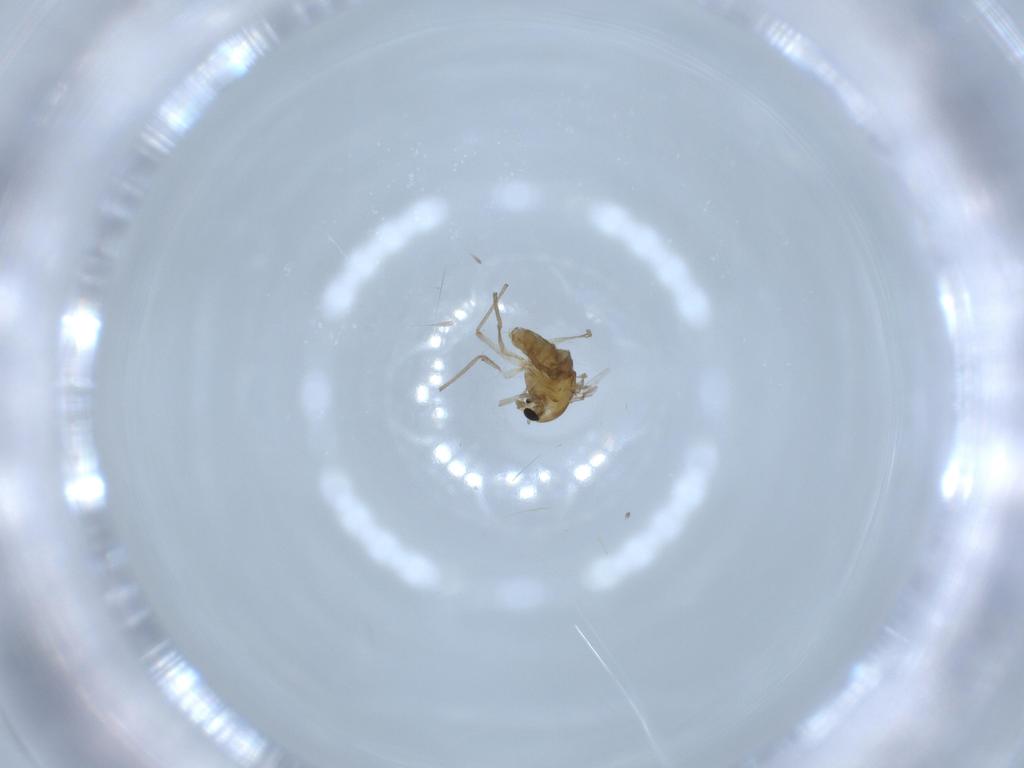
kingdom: Animalia
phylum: Arthropoda
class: Insecta
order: Diptera
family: Chironomidae
